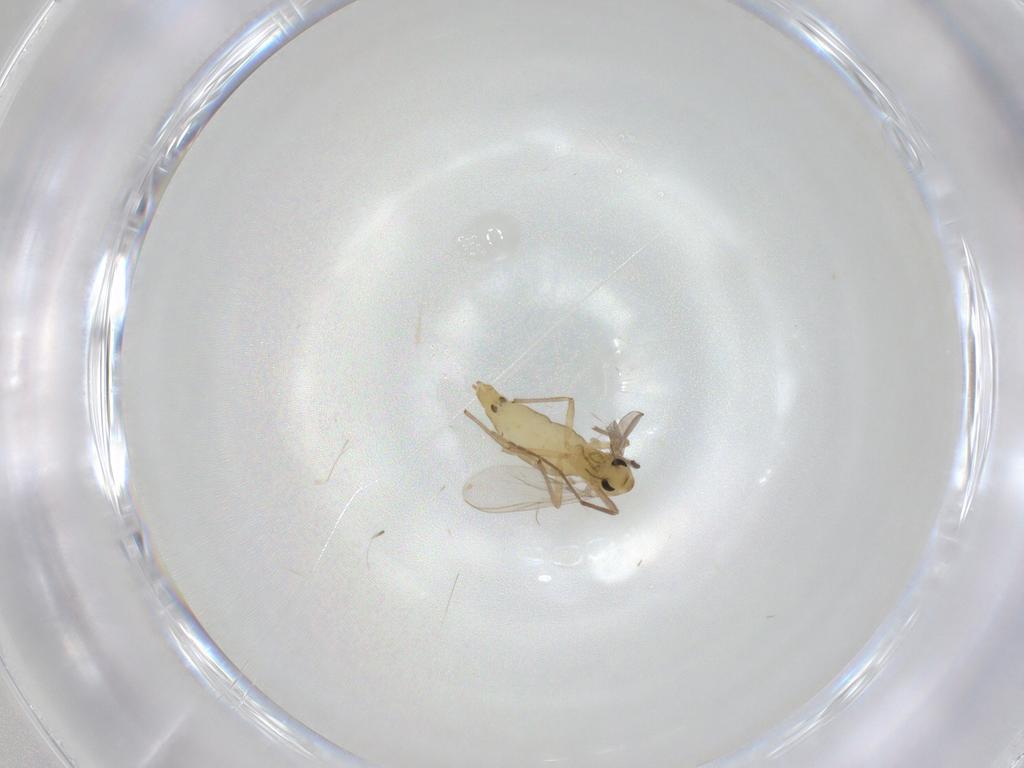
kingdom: Animalia
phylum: Arthropoda
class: Insecta
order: Diptera
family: Chironomidae
